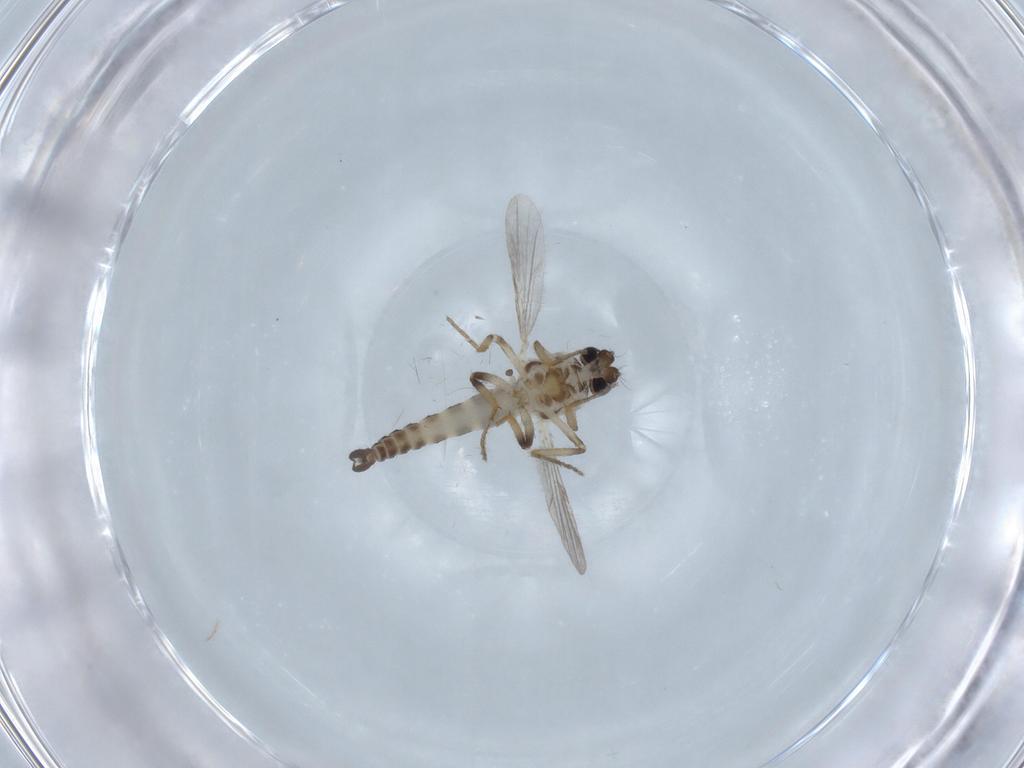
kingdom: Animalia
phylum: Arthropoda
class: Insecta
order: Diptera
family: Ceratopogonidae
